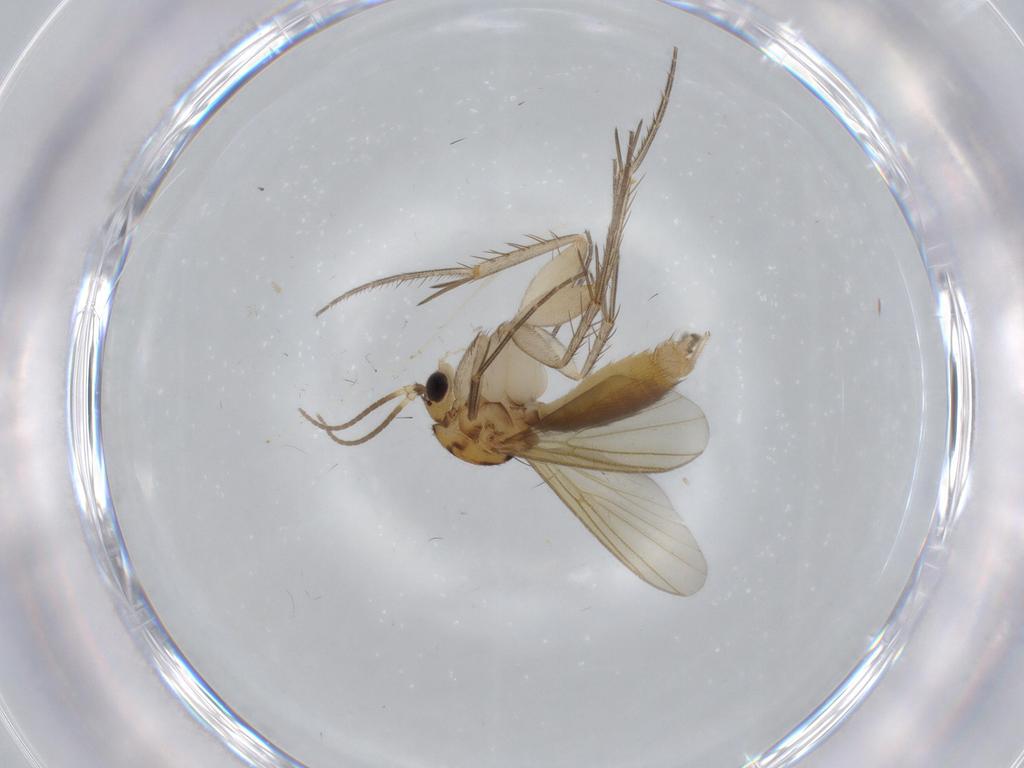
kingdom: Animalia
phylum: Arthropoda
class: Insecta
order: Diptera
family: Mycetophilidae
